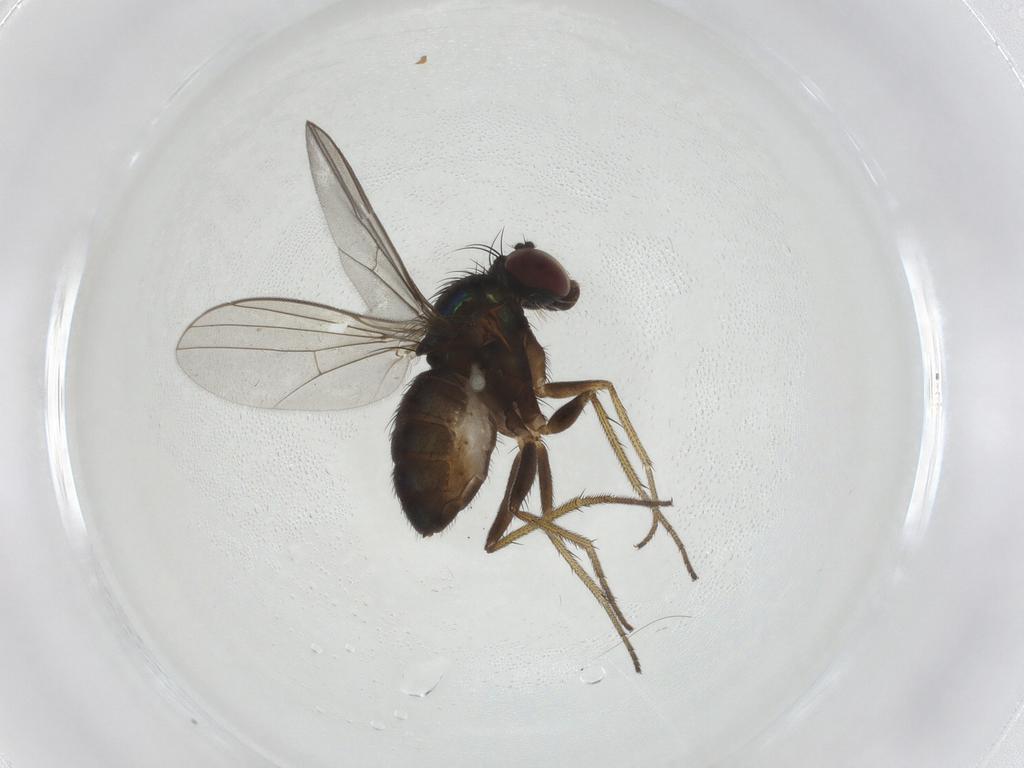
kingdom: Animalia
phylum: Arthropoda
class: Insecta
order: Diptera
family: Dolichopodidae
